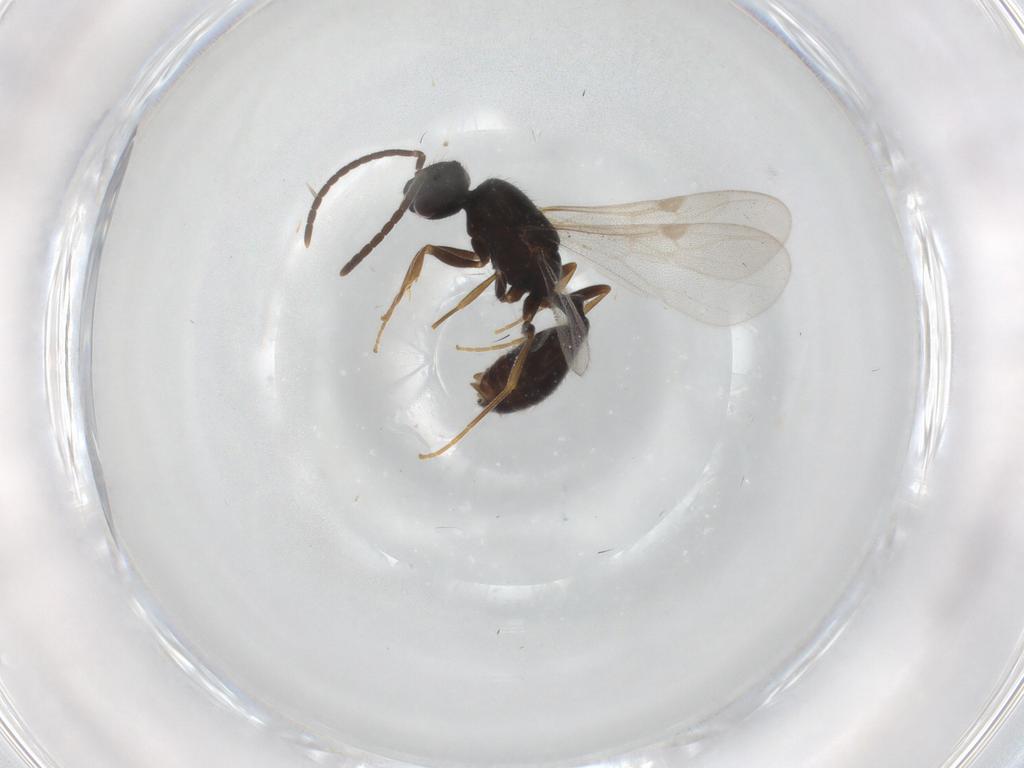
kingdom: Animalia
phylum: Arthropoda
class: Insecta
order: Hymenoptera
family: Formicidae
